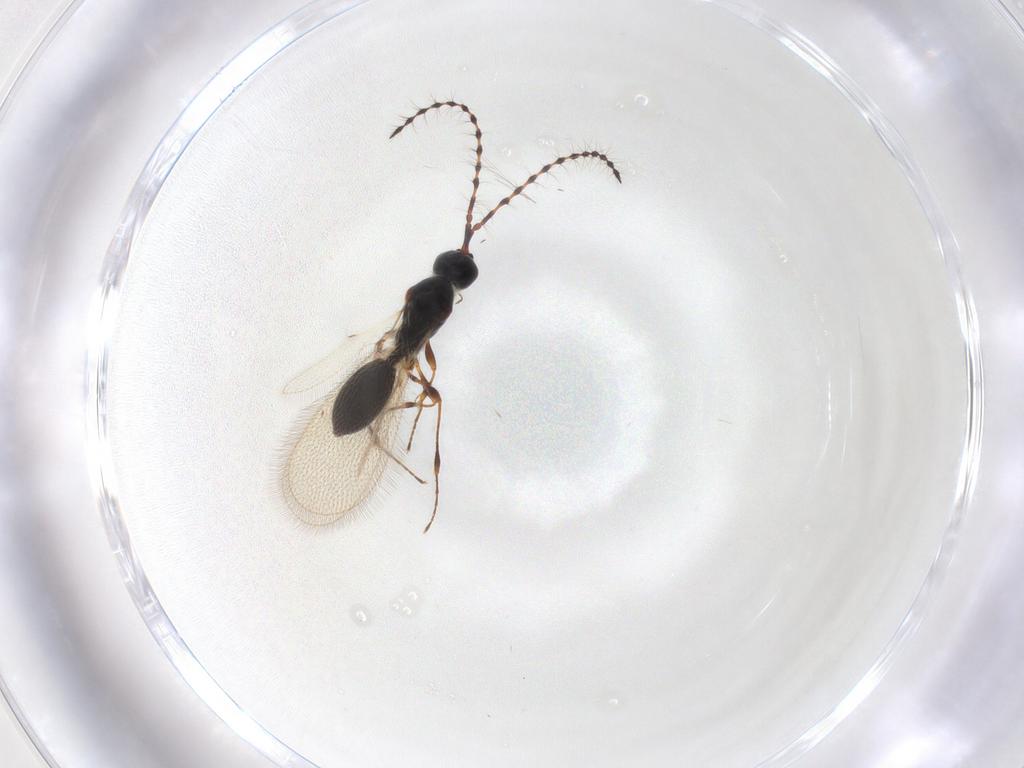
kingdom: Animalia
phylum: Arthropoda
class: Insecta
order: Hymenoptera
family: Diapriidae
